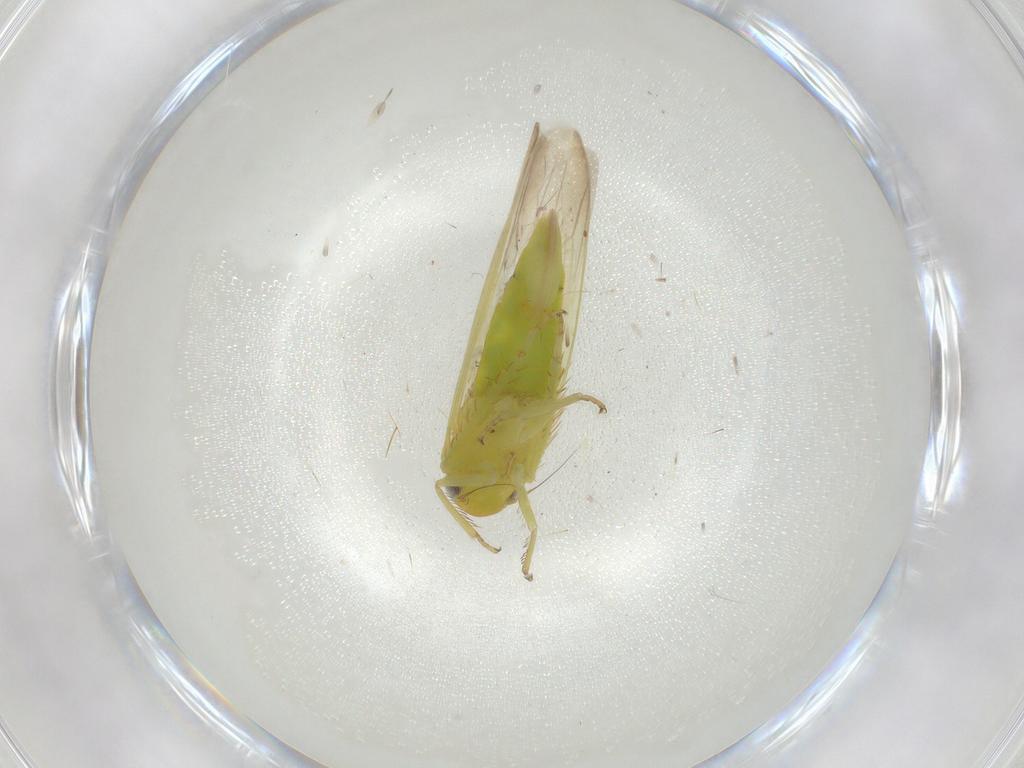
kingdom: Animalia
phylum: Arthropoda
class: Insecta
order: Hemiptera
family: Cicadellidae
